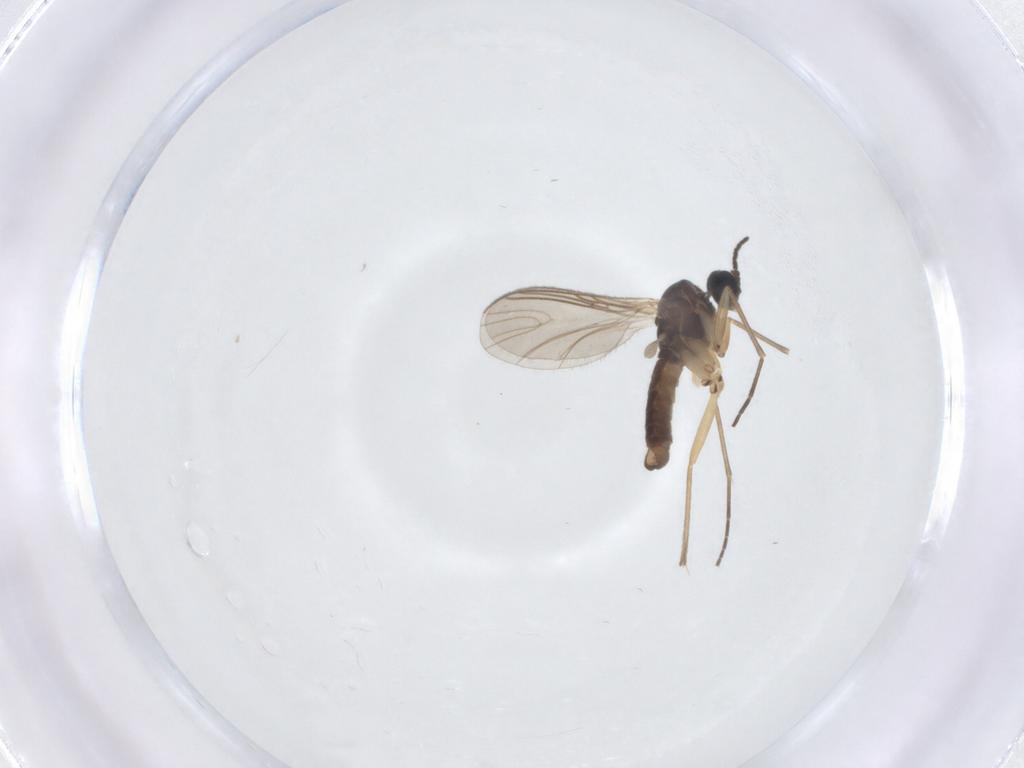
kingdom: Animalia
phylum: Arthropoda
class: Insecta
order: Diptera
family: Sciaridae
